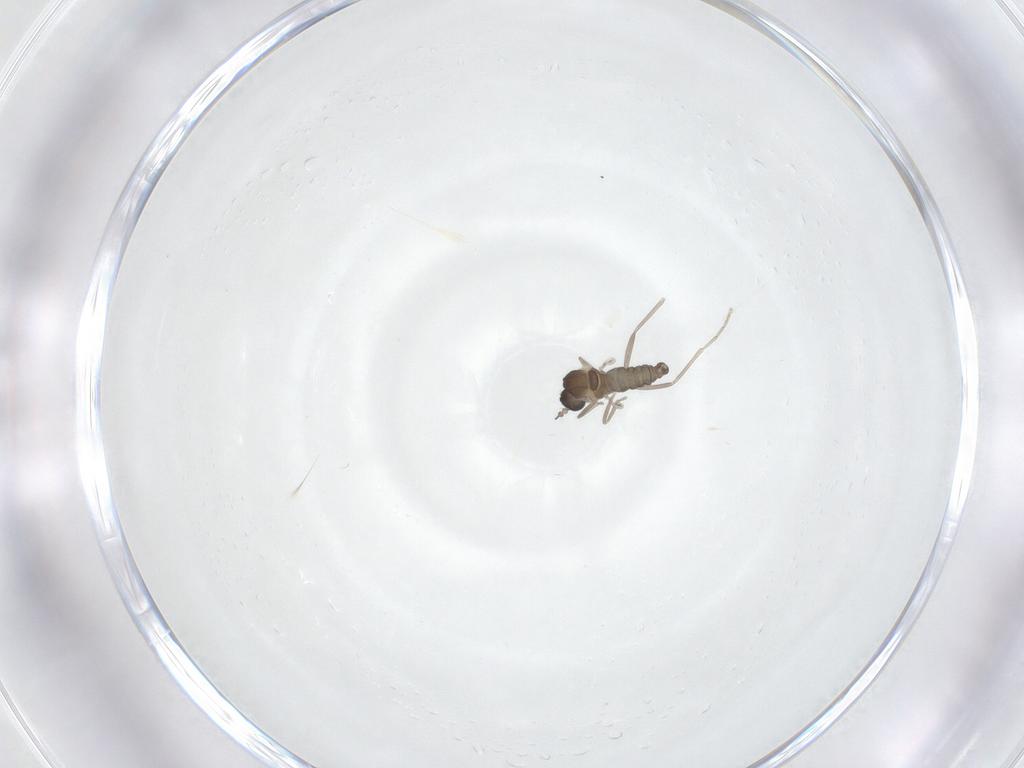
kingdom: Animalia
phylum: Arthropoda
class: Insecta
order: Diptera
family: Cecidomyiidae
